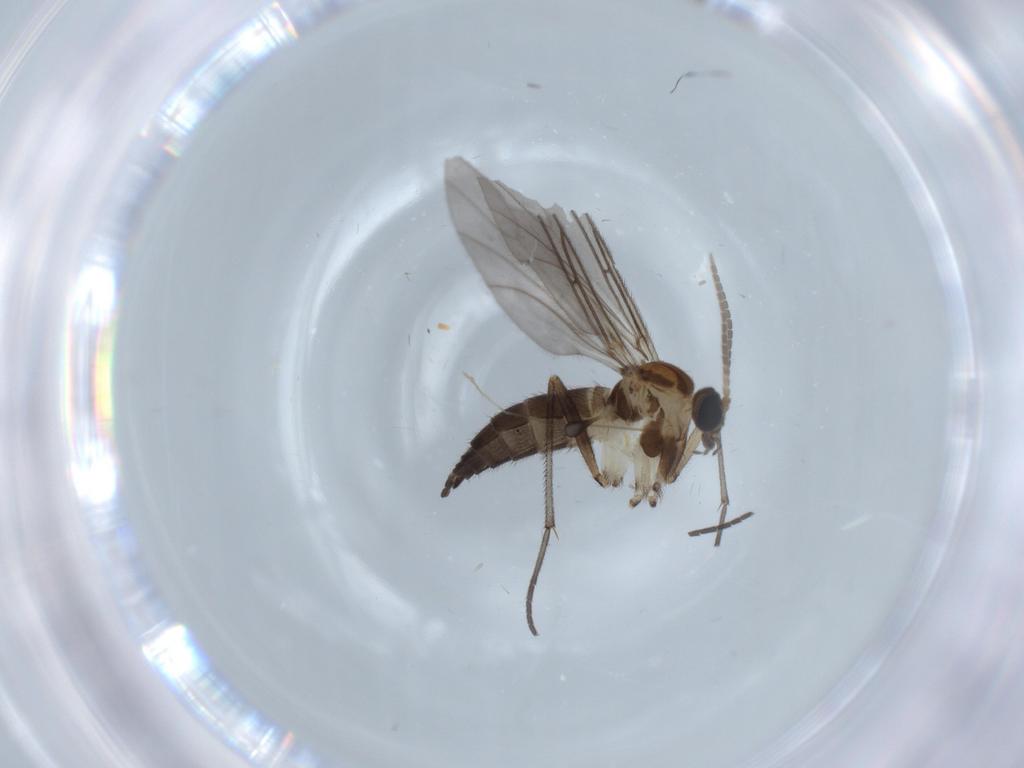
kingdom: Animalia
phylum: Arthropoda
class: Insecta
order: Diptera
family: Sciaridae
